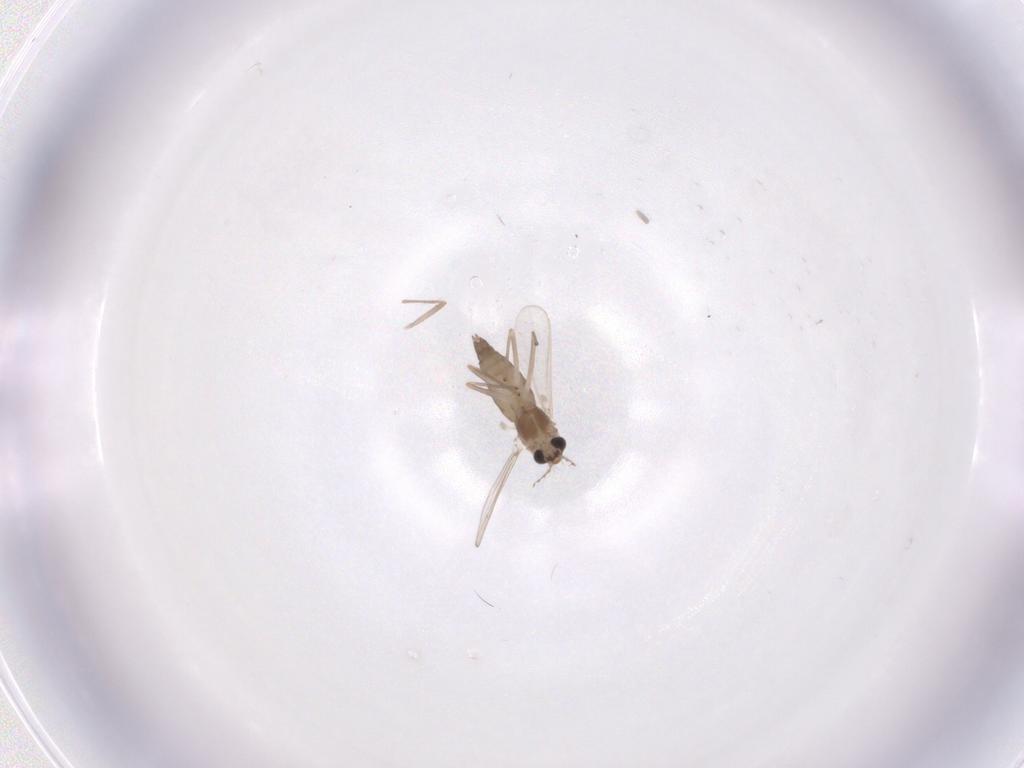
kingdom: Animalia
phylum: Arthropoda
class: Insecta
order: Diptera
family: Chironomidae
